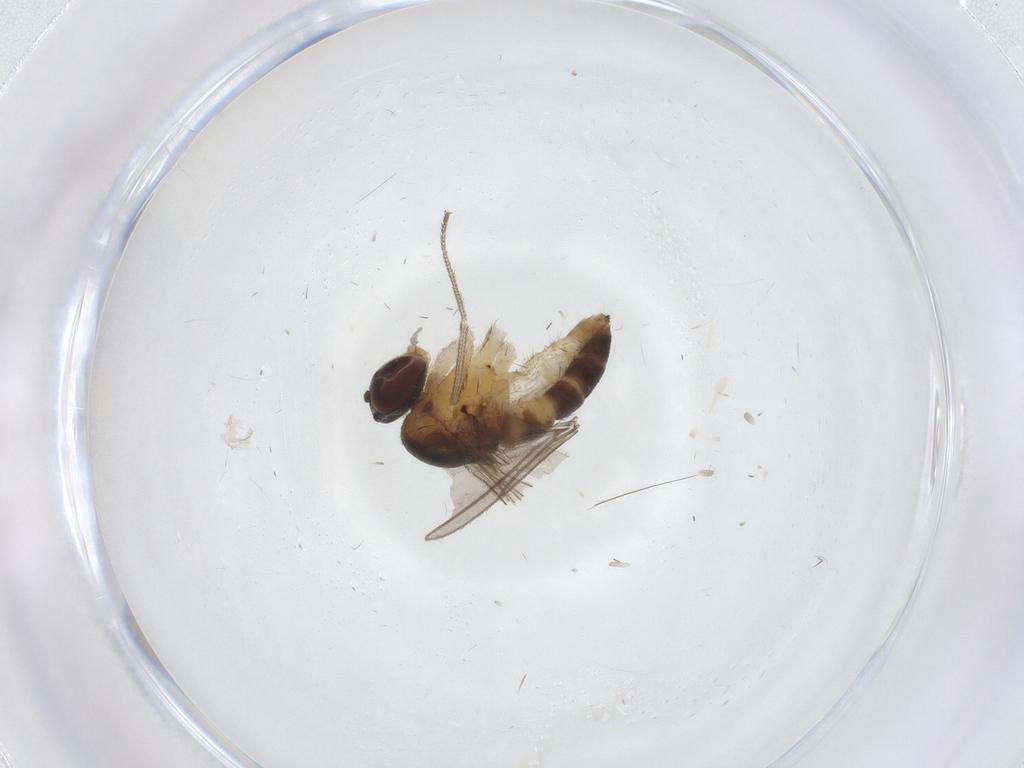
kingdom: Animalia
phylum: Arthropoda
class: Insecta
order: Diptera
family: Dolichopodidae
